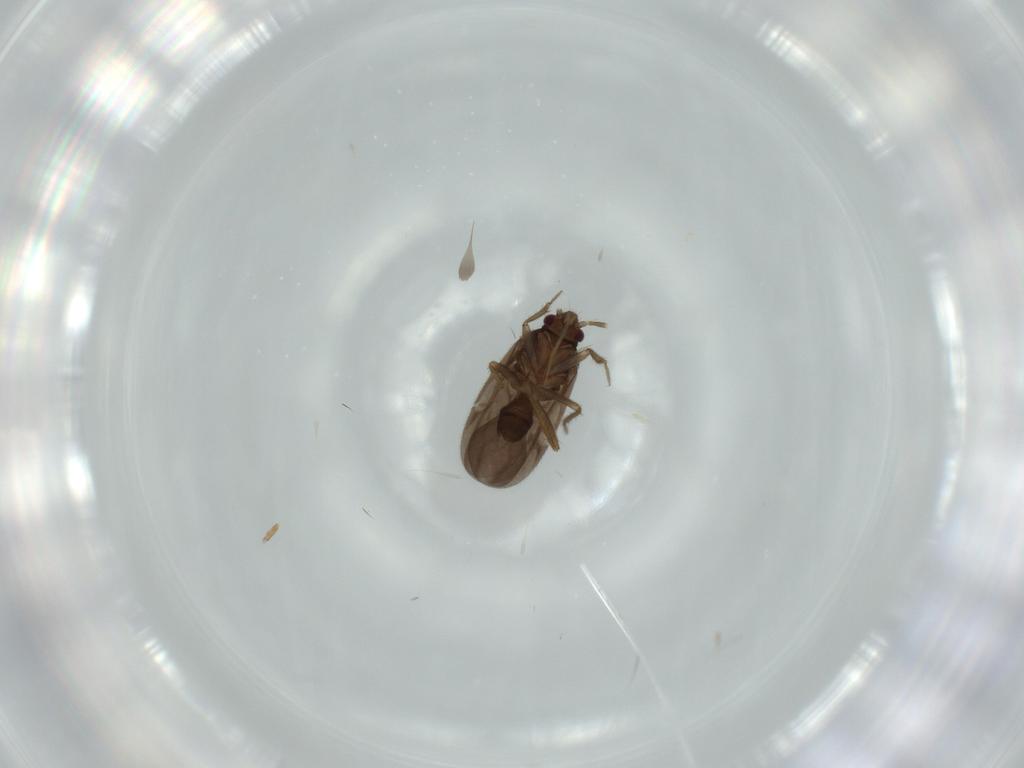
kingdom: Animalia
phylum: Arthropoda
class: Insecta
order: Hemiptera
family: Ceratocombidae
